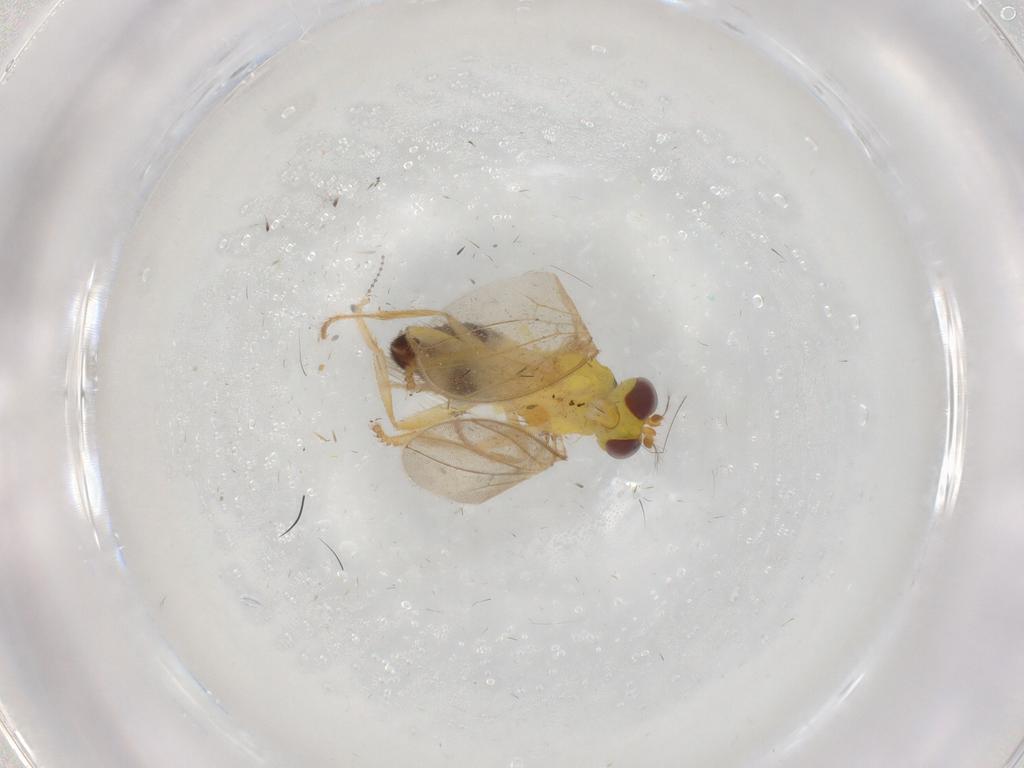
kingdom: Animalia
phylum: Arthropoda
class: Insecta
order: Diptera
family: Periscelididae
